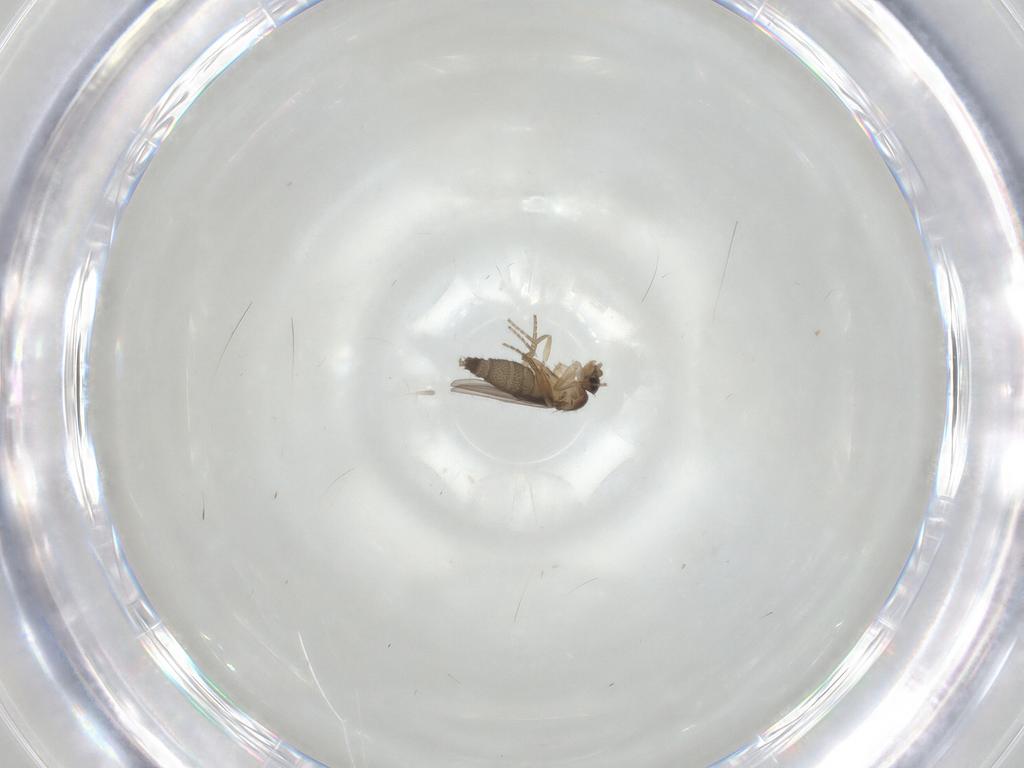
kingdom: Animalia
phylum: Arthropoda
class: Insecta
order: Diptera
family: Phoridae
